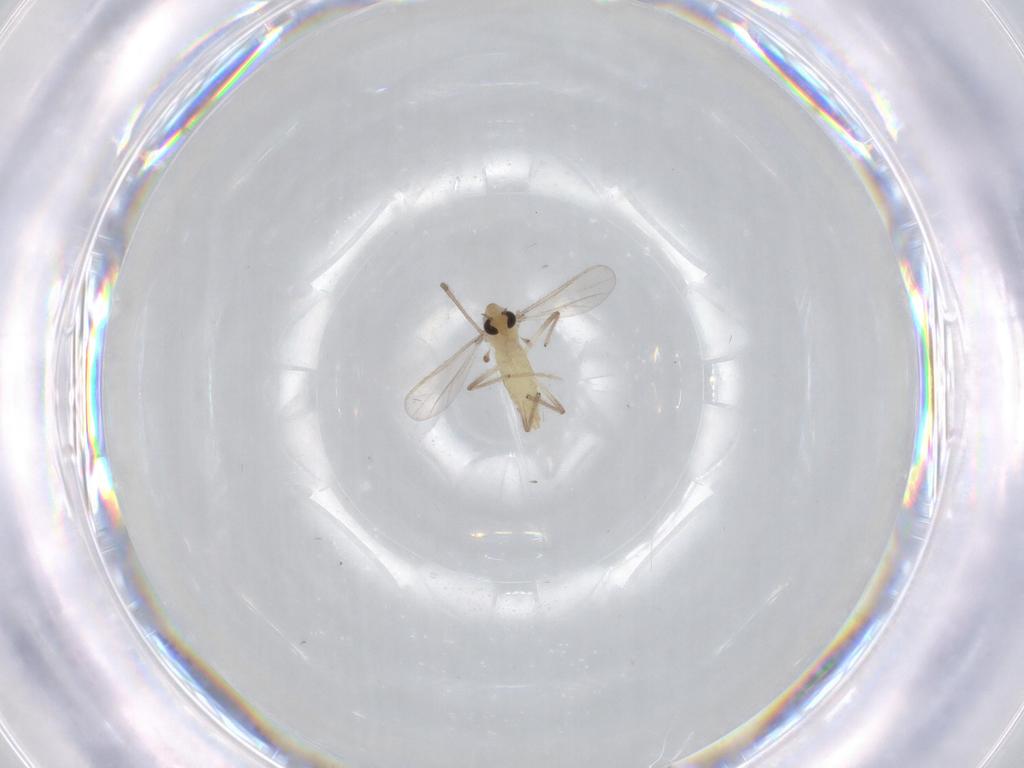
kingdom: Animalia
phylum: Arthropoda
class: Insecta
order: Diptera
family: Chironomidae
